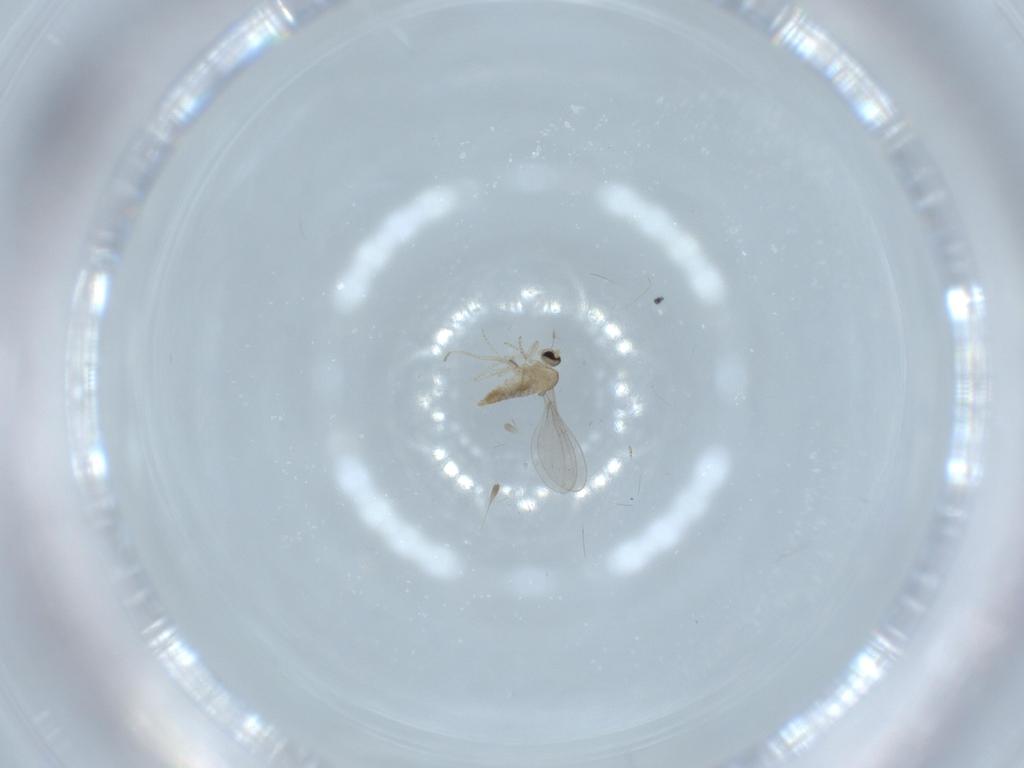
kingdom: Animalia
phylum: Arthropoda
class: Insecta
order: Diptera
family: Cecidomyiidae
